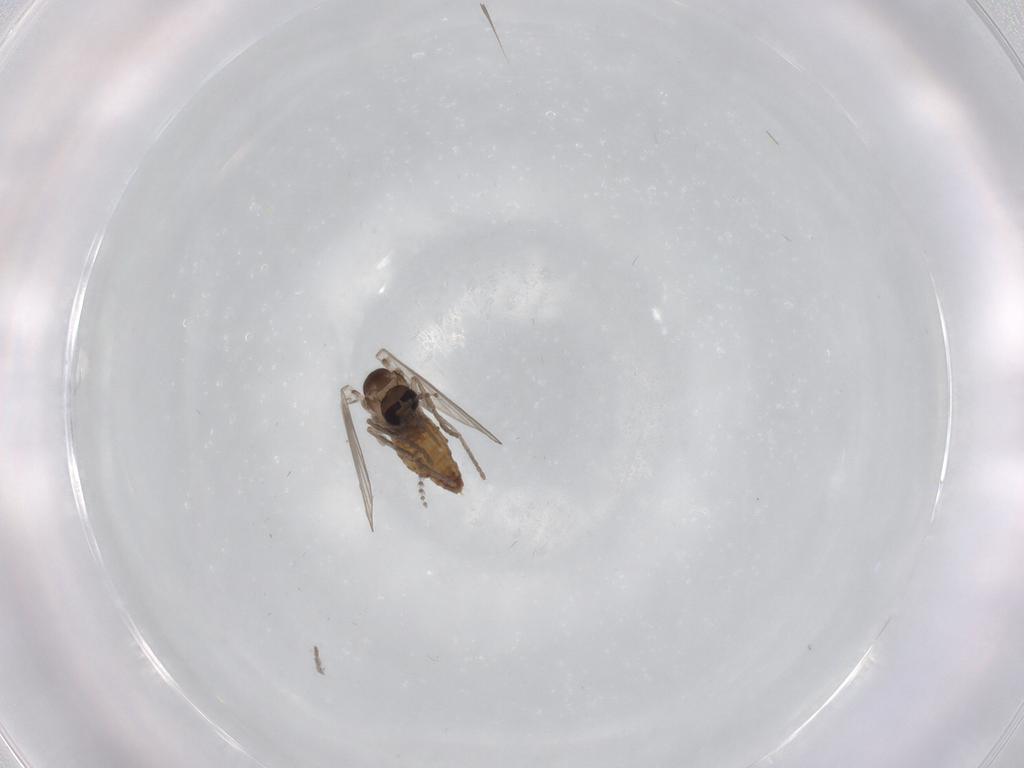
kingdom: Animalia
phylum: Arthropoda
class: Insecta
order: Diptera
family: Psychodidae
